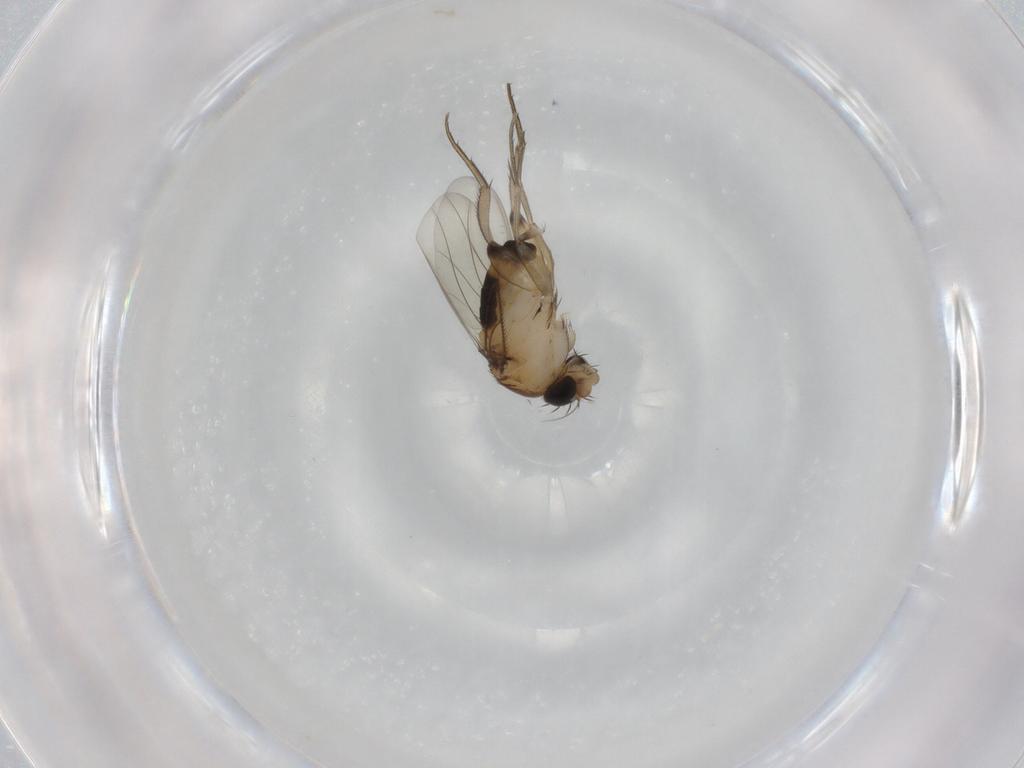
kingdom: Animalia
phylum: Arthropoda
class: Insecta
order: Diptera
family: Phoridae
